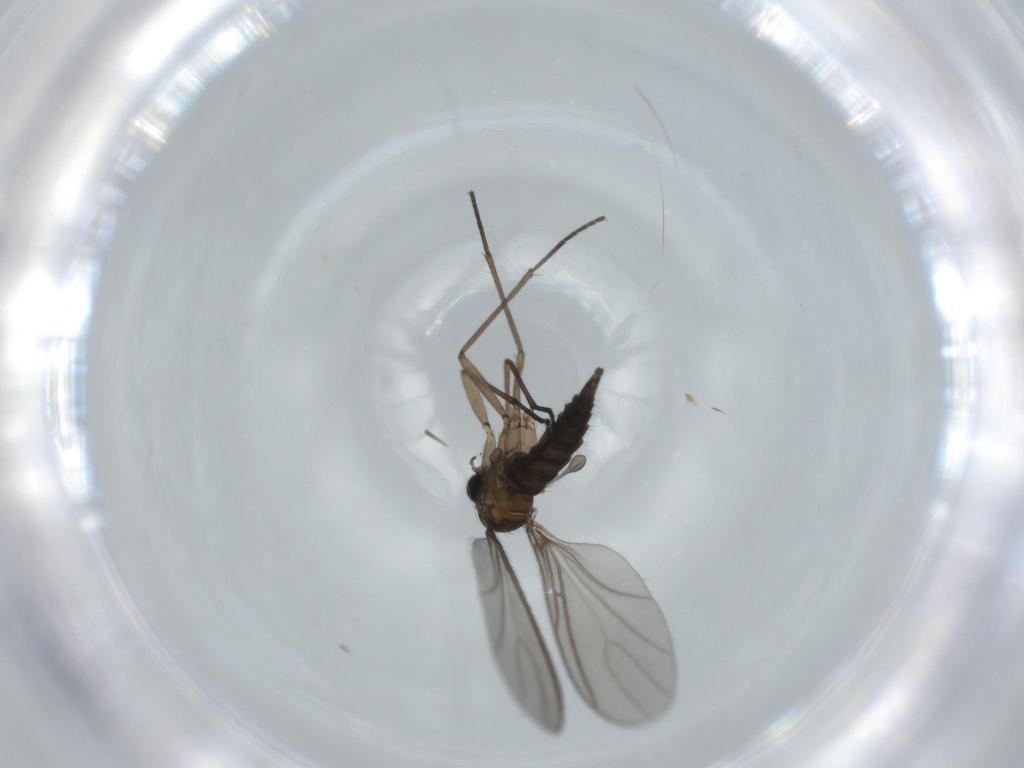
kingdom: Animalia
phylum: Arthropoda
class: Insecta
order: Diptera
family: Sciaridae
